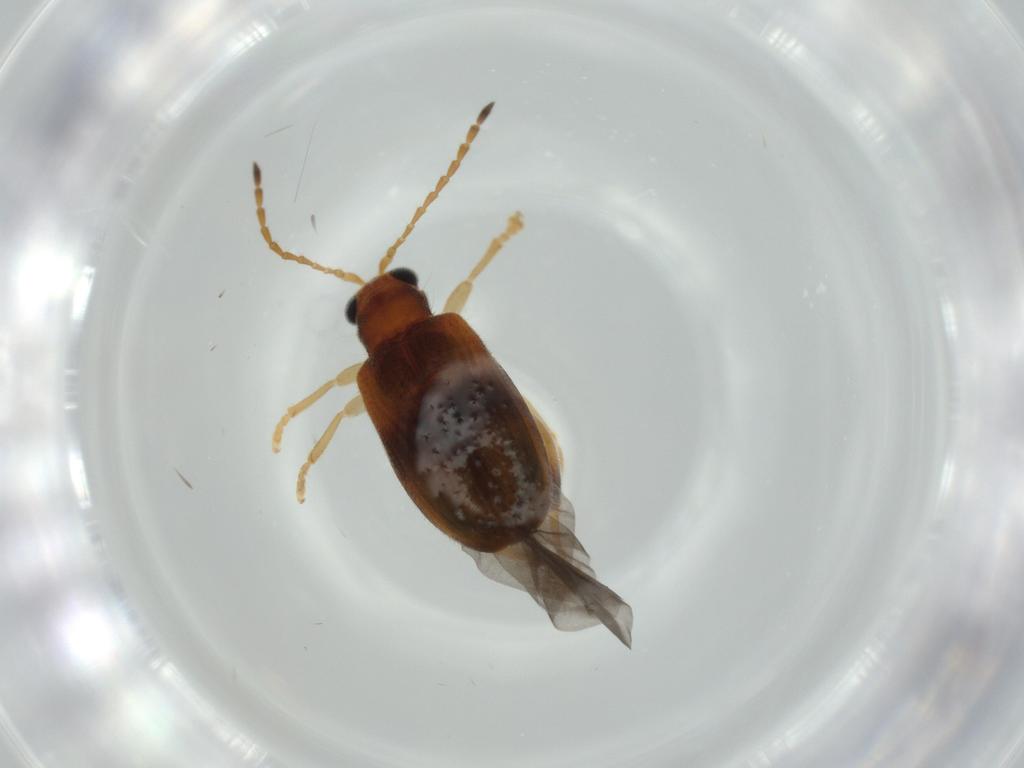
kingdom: Animalia
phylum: Arthropoda
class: Insecta
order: Coleoptera
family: Chrysomelidae
